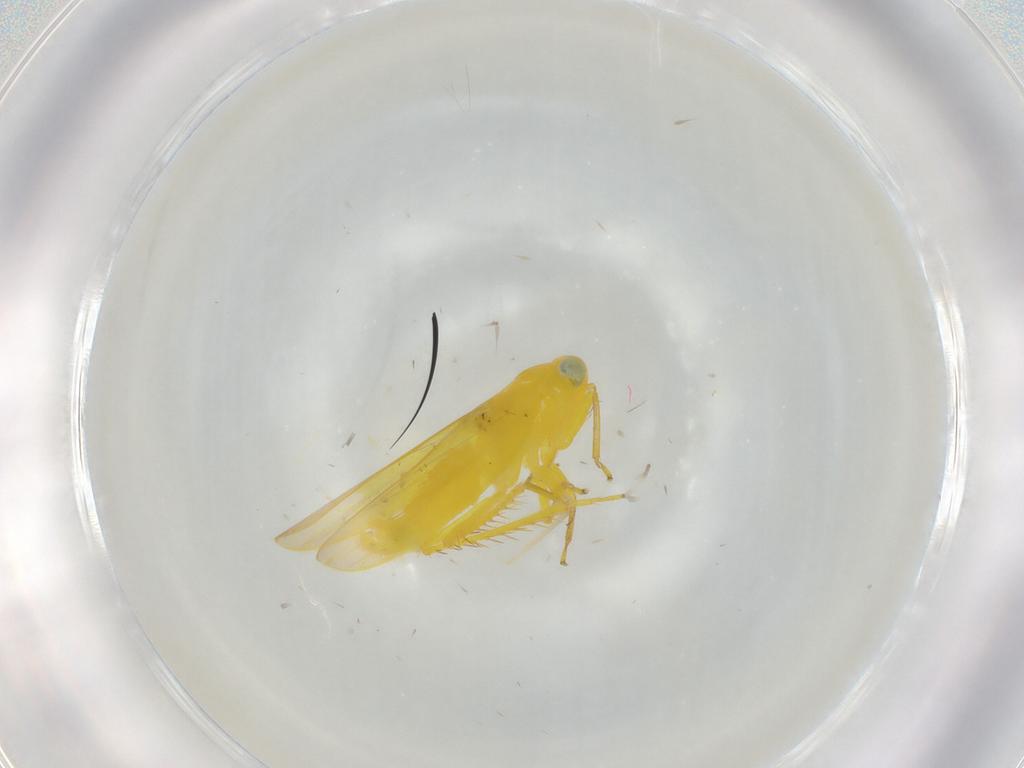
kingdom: Animalia
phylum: Arthropoda
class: Insecta
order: Hemiptera
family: Cicadellidae
